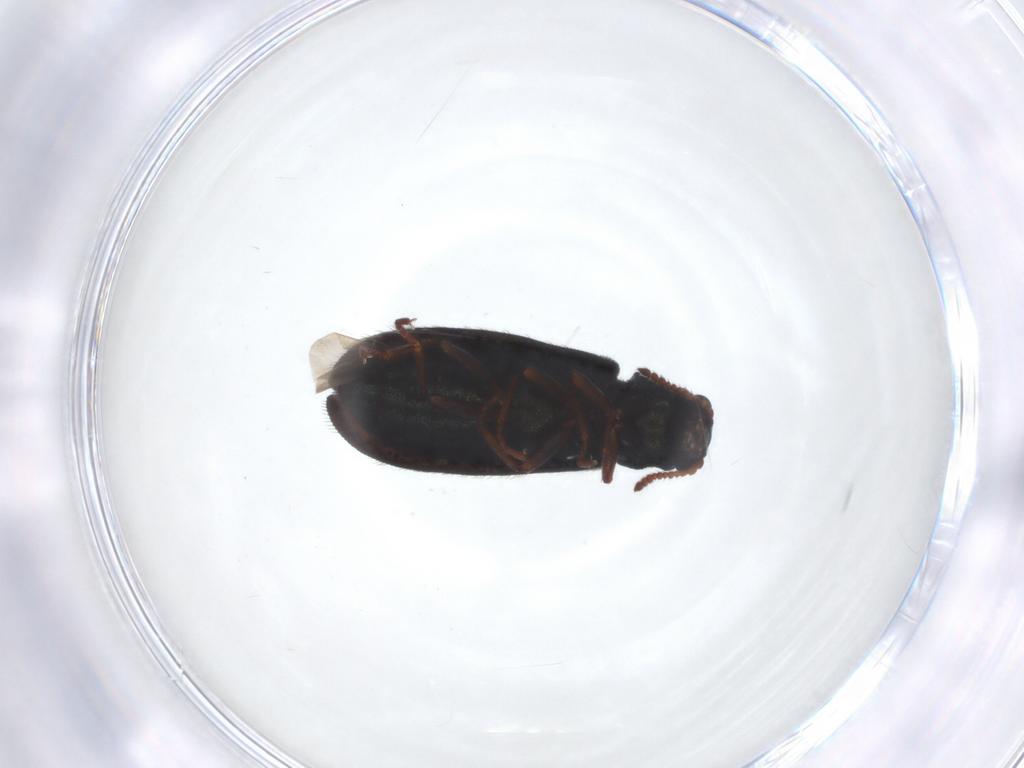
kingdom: Animalia
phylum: Arthropoda
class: Insecta
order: Coleoptera
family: Melyridae
